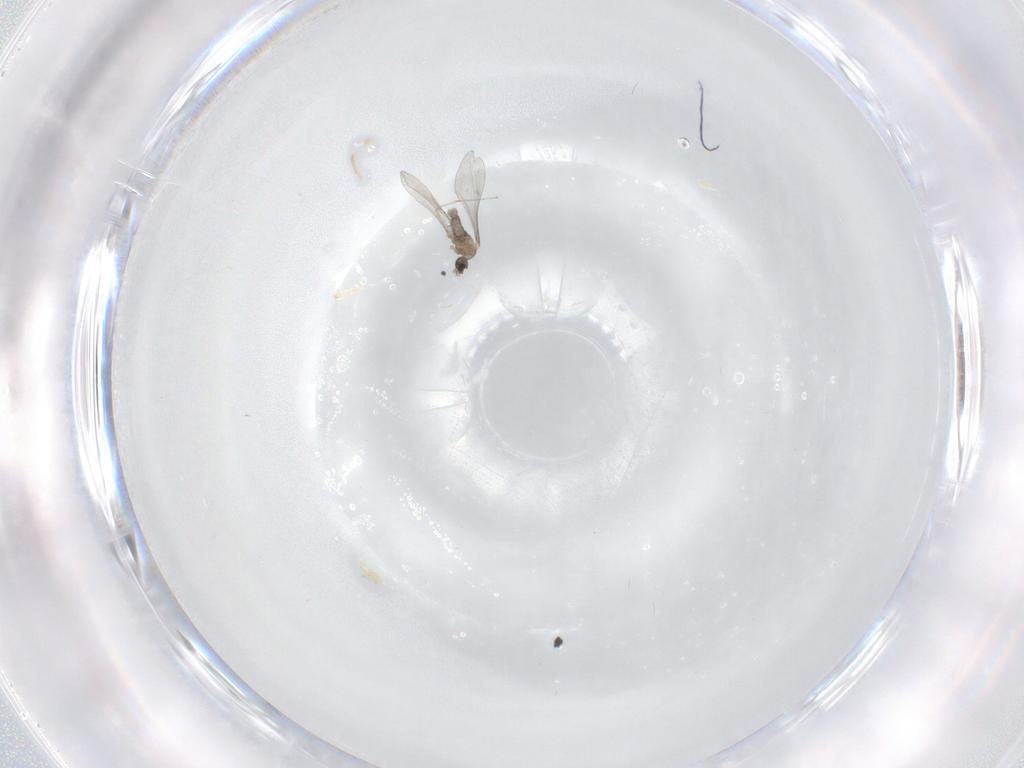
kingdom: Animalia
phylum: Arthropoda
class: Insecta
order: Diptera
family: Cecidomyiidae
